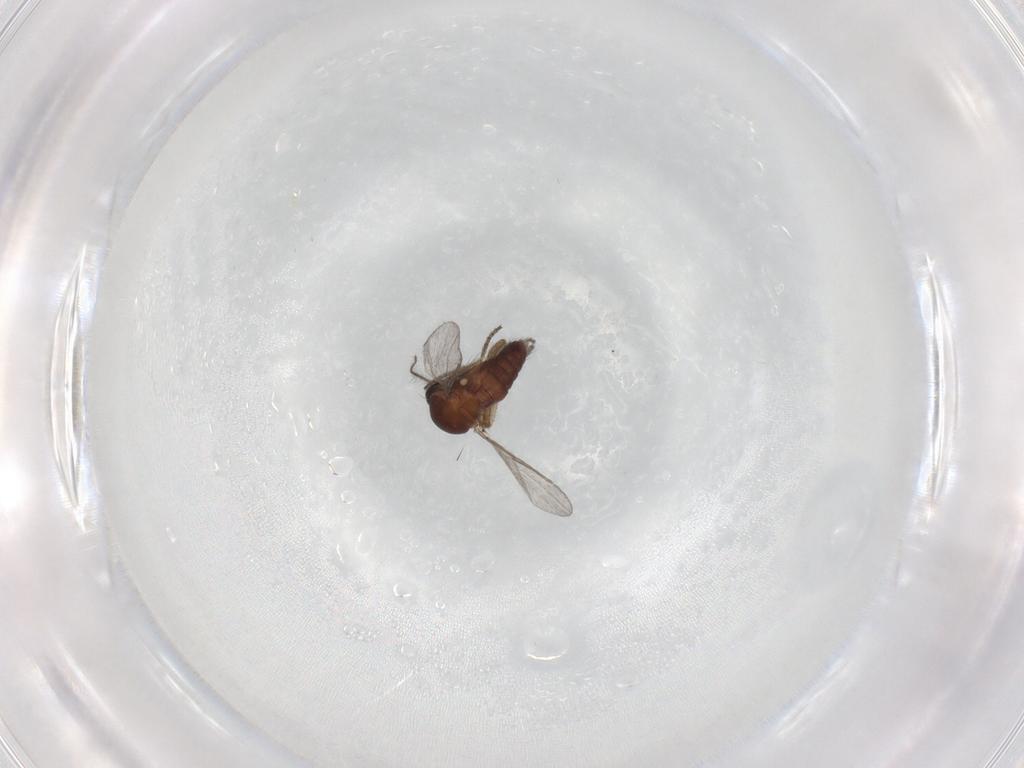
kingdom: Animalia
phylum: Arthropoda
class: Insecta
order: Diptera
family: Ceratopogonidae
